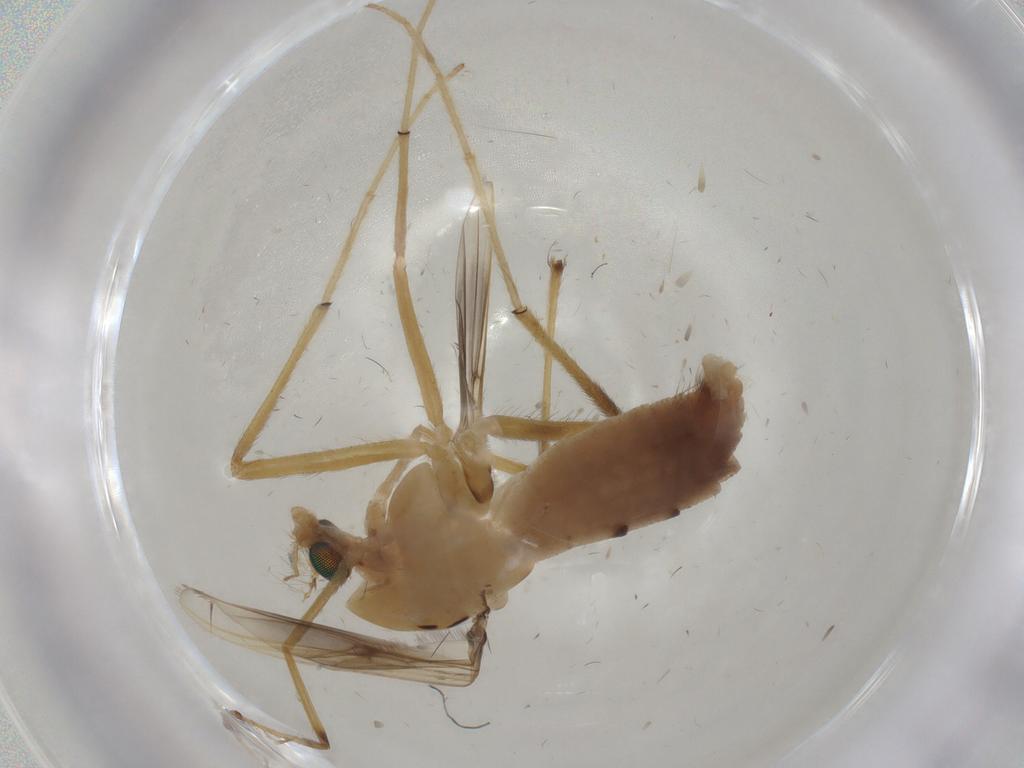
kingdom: Animalia
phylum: Arthropoda
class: Insecta
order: Diptera
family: Chironomidae
